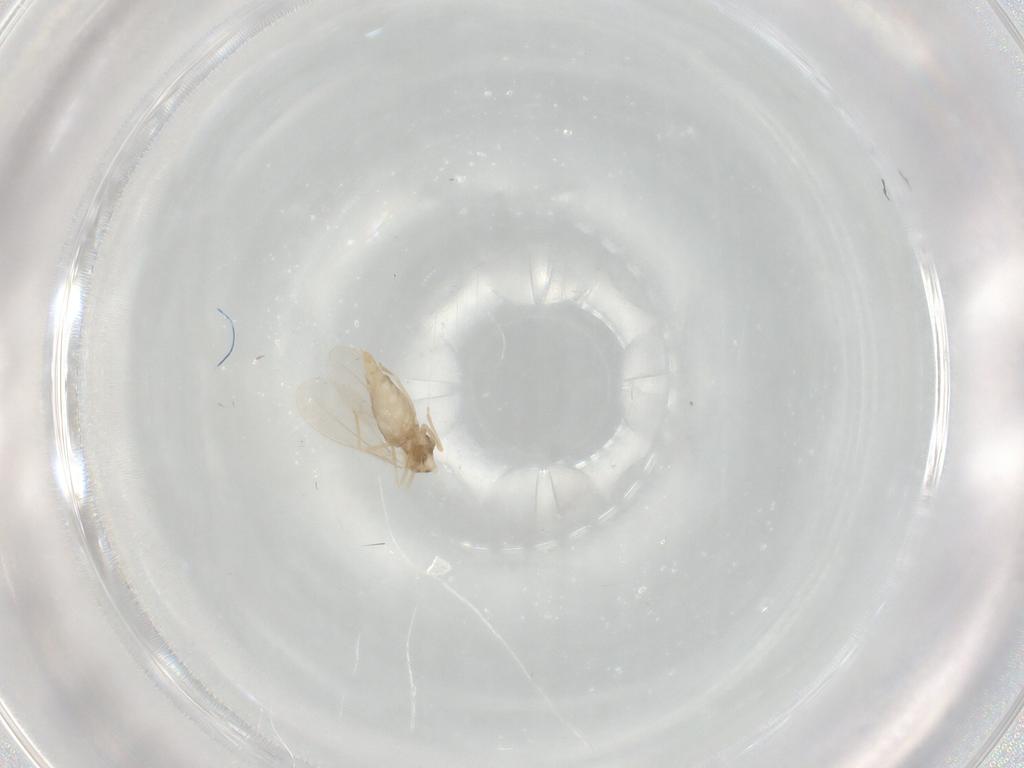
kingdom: Animalia
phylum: Arthropoda
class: Insecta
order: Diptera
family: Cecidomyiidae
